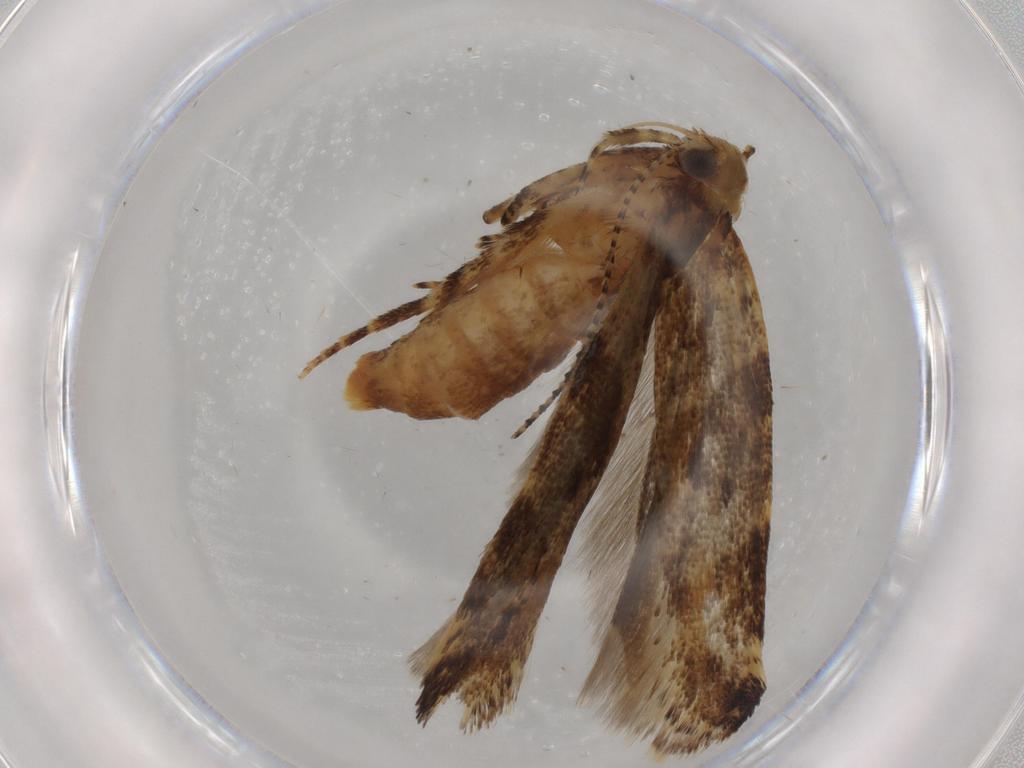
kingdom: Animalia
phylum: Arthropoda
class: Insecta
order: Lepidoptera
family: Gelechiidae
